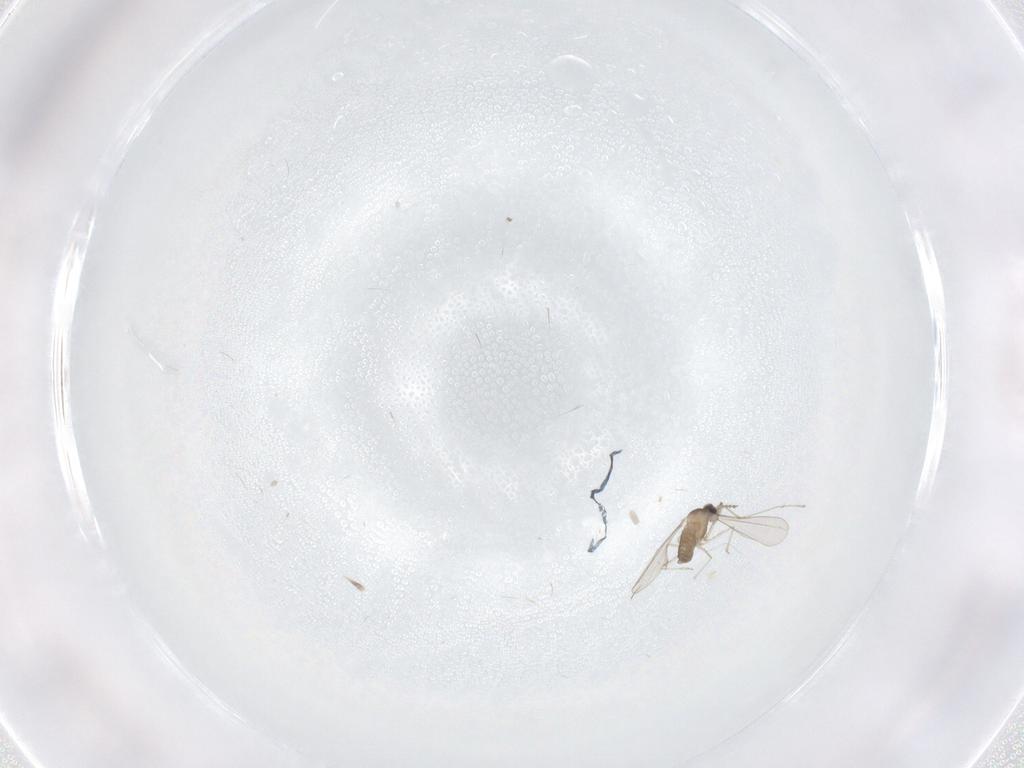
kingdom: Animalia
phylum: Arthropoda
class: Insecta
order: Diptera
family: Cecidomyiidae
